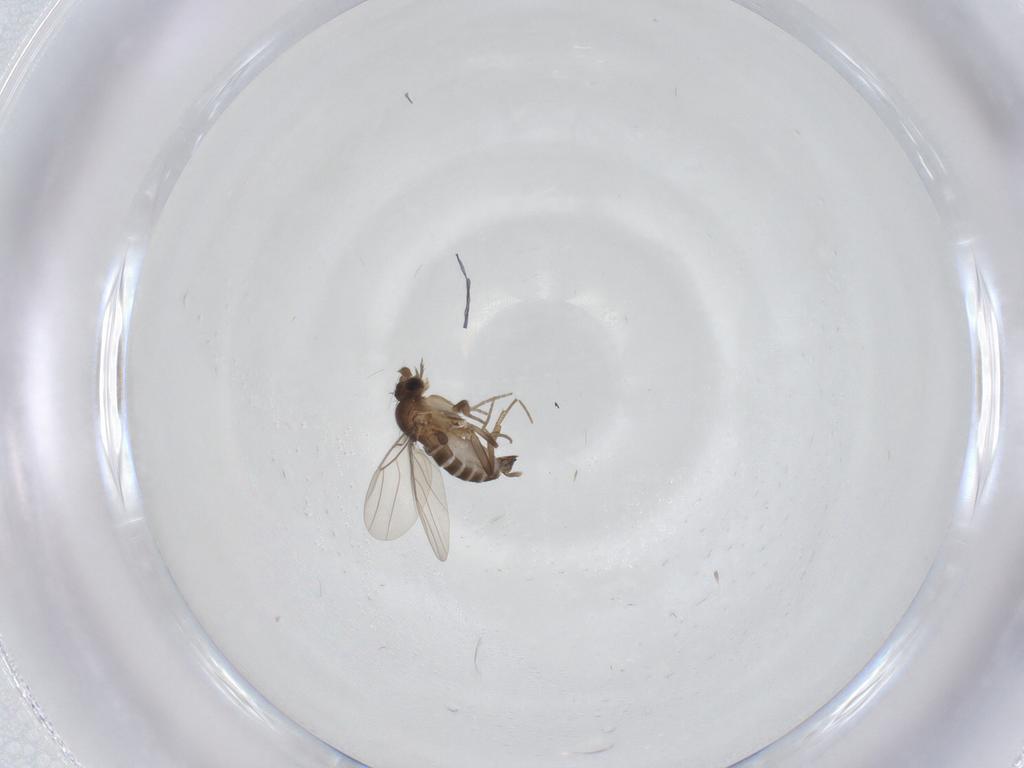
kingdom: Animalia
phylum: Arthropoda
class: Insecta
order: Diptera
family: Phoridae
